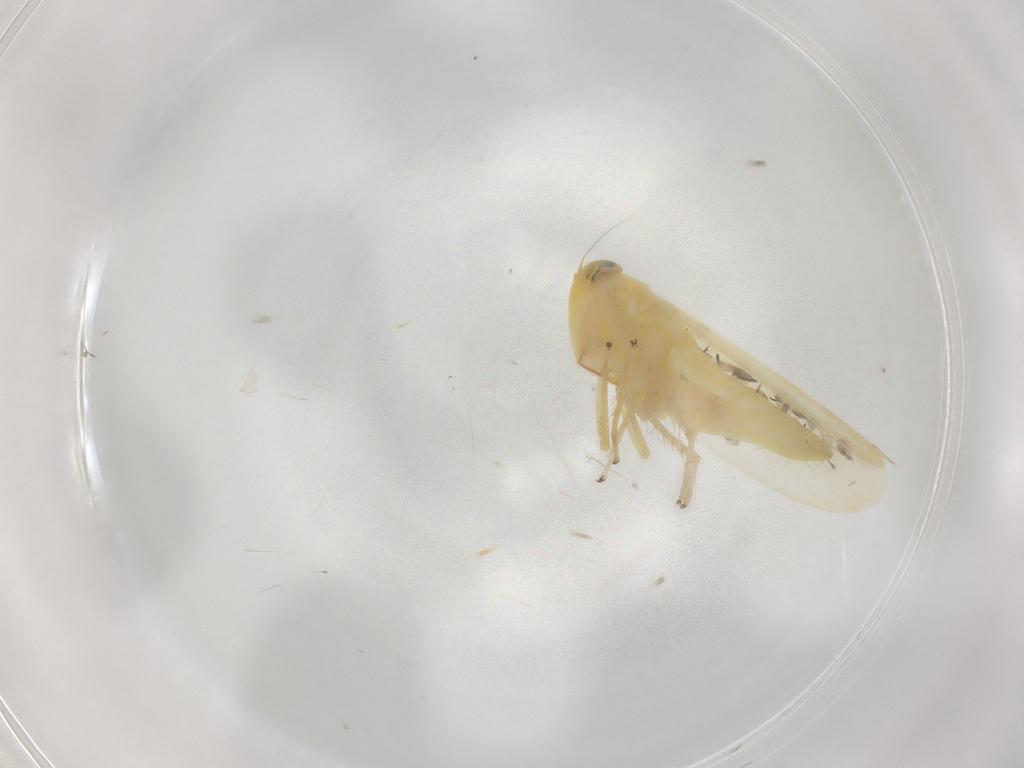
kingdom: Animalia
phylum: Arthropoda
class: Insecta
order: Hemiptera
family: Cicadellidae
